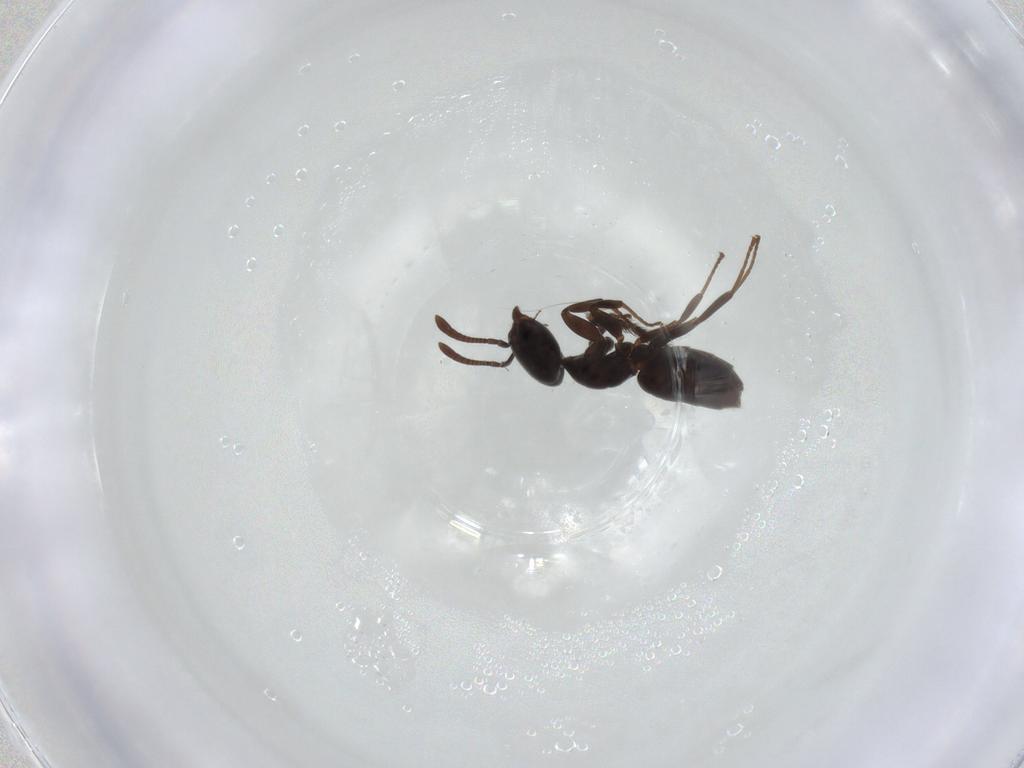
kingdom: Animalia
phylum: Arthropoda
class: Insecta
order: Hymenoptera
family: Formicidae
